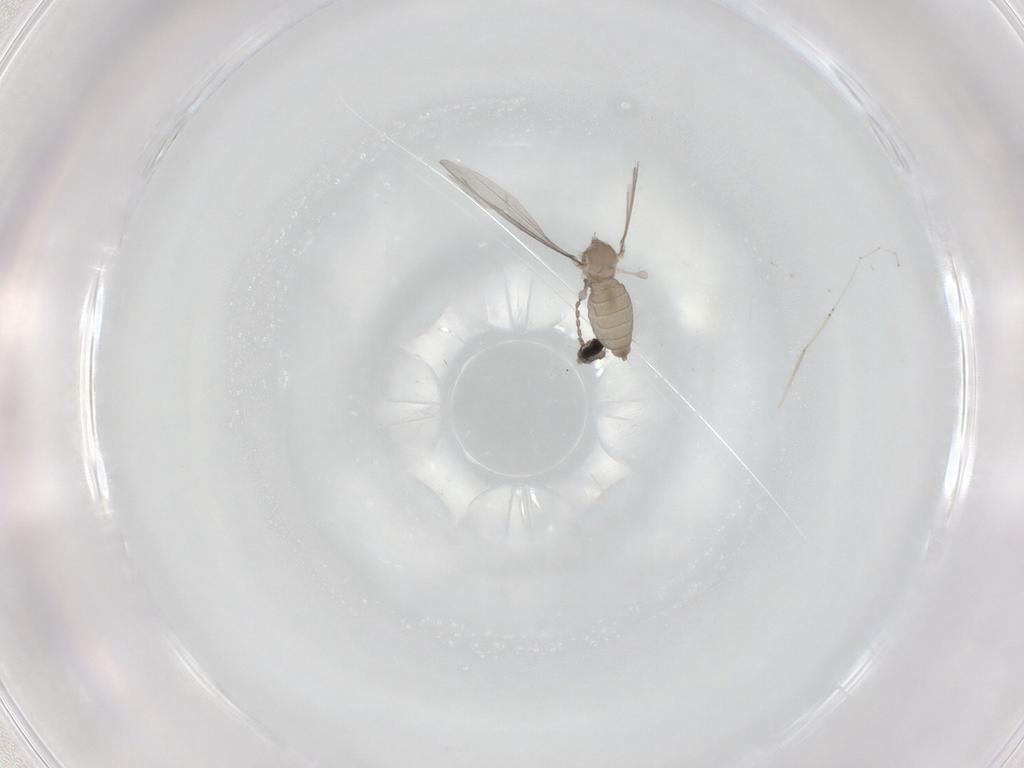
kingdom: Animalia
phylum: Arthropoda
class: Insecta
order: Diptera
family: Cecidomyiidae
